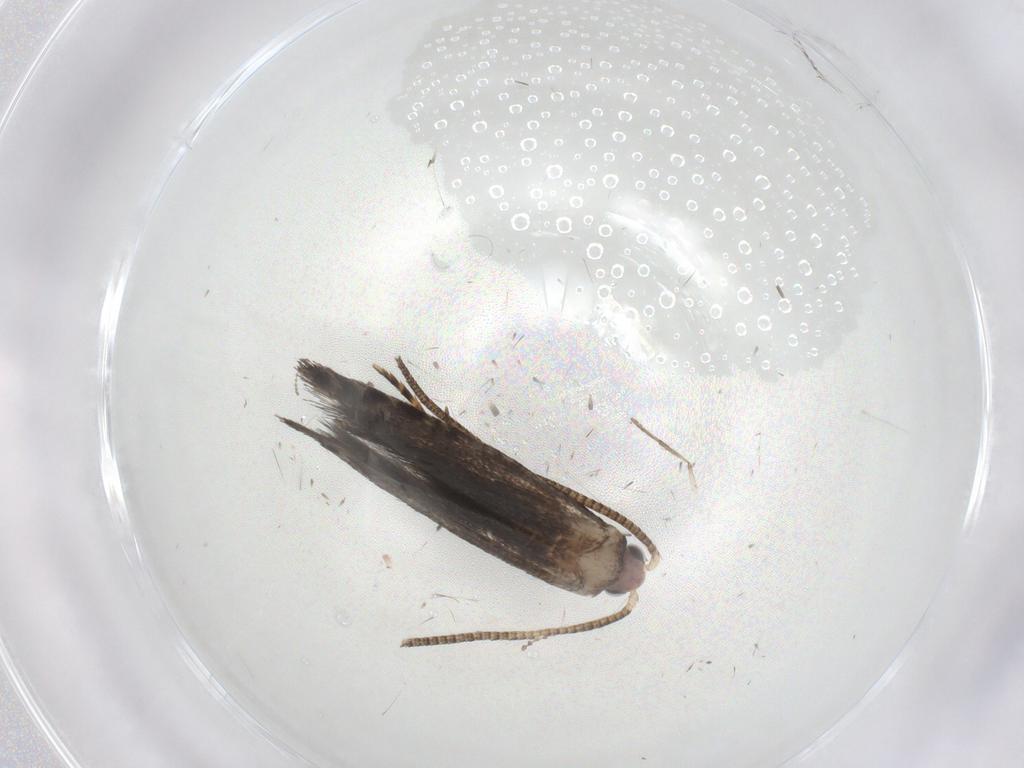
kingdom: Animalia
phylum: Arthropoda
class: Insecta
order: Lepidoptera
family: Tineidae
